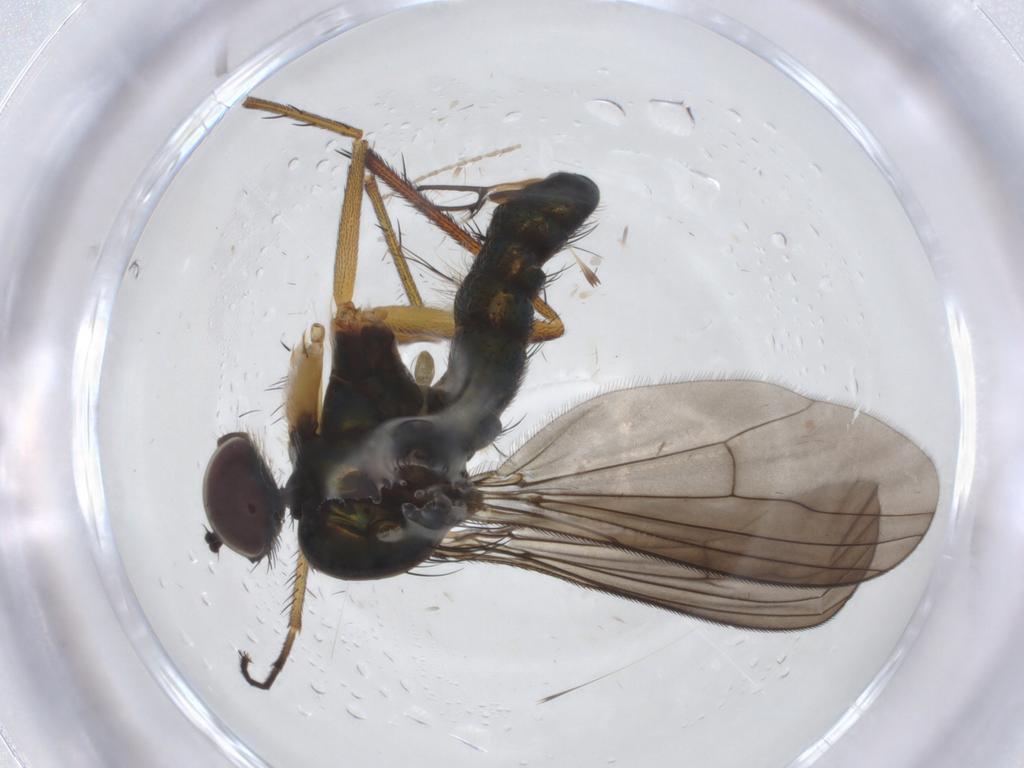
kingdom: Animalia
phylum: Arthropoda
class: Insecta
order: Diptera
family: Dolichopodidae
